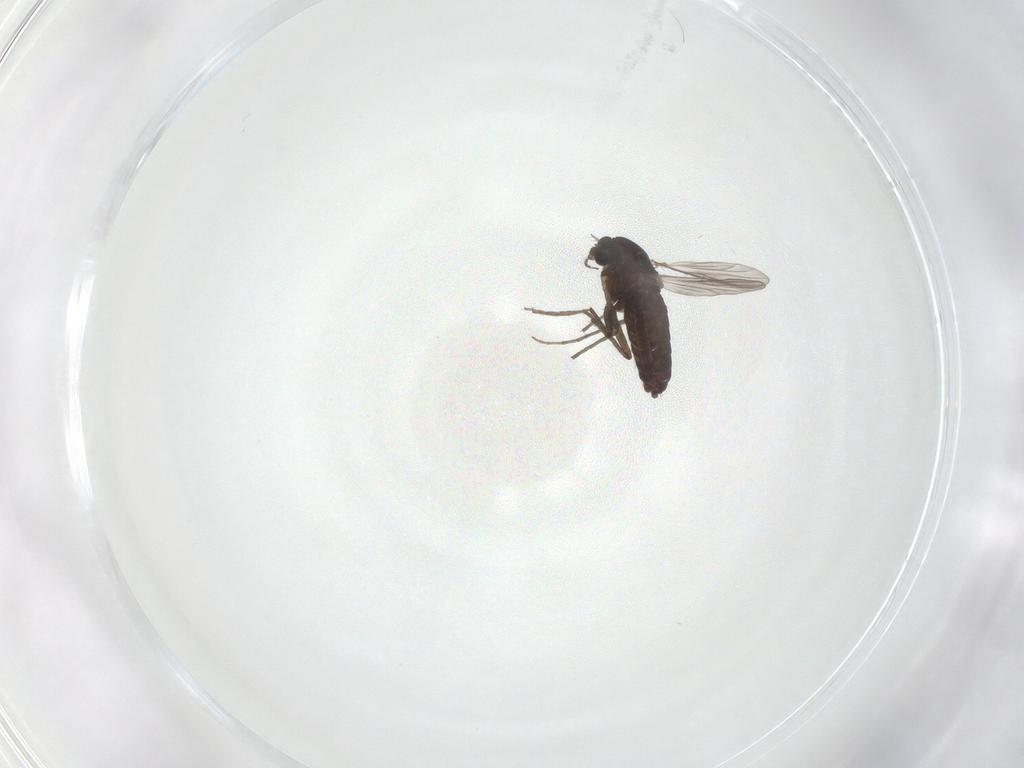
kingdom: Animalia
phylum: Arthropoda
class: Insecta
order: Diptera
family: Chironomidae
